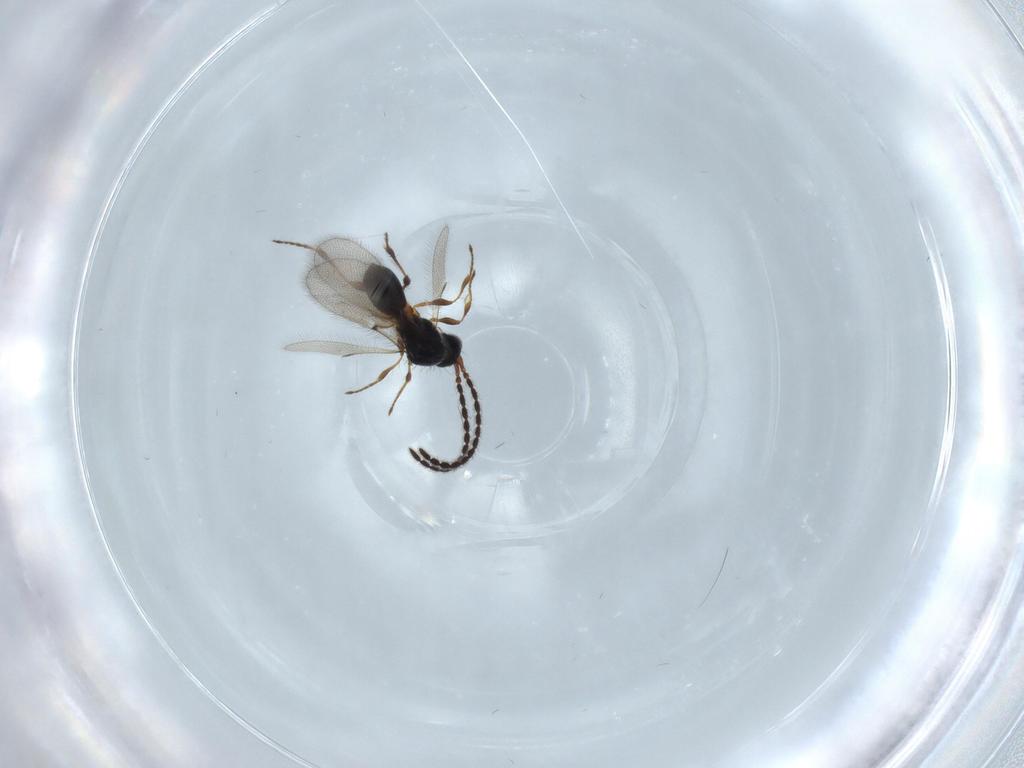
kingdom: Animalia
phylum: Arthropoda
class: Insecta
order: Hymenoptera
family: Diapriidae
